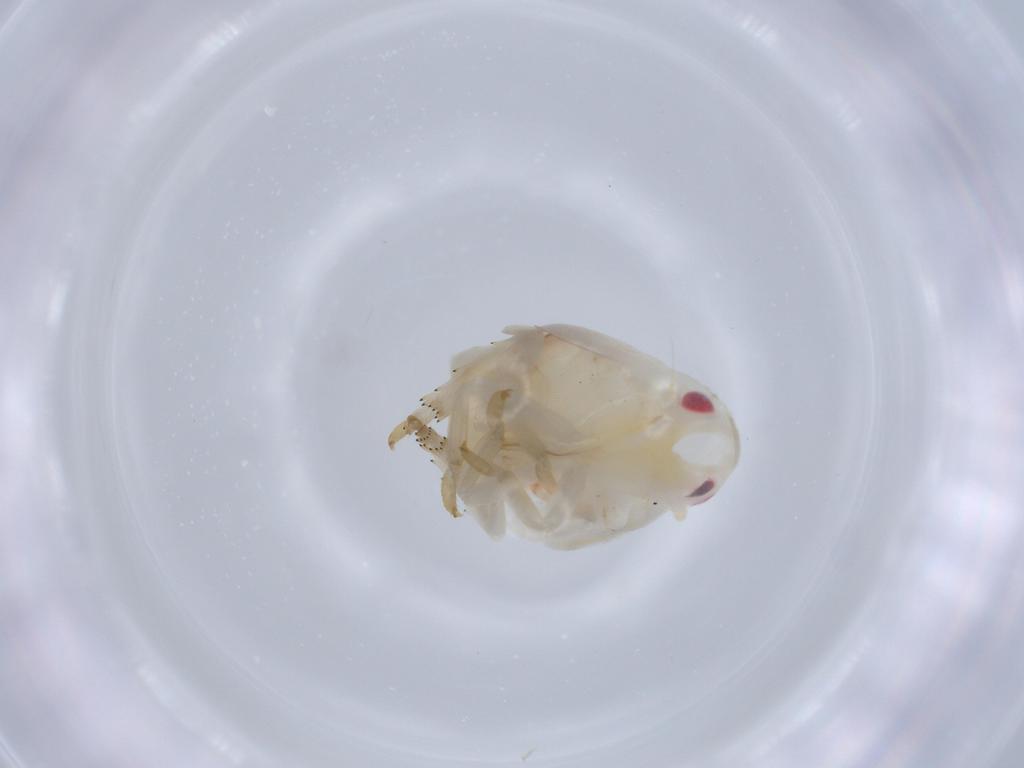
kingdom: Animalia
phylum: Arthropoda
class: Insecta
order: Hemiptera
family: Flatidae
